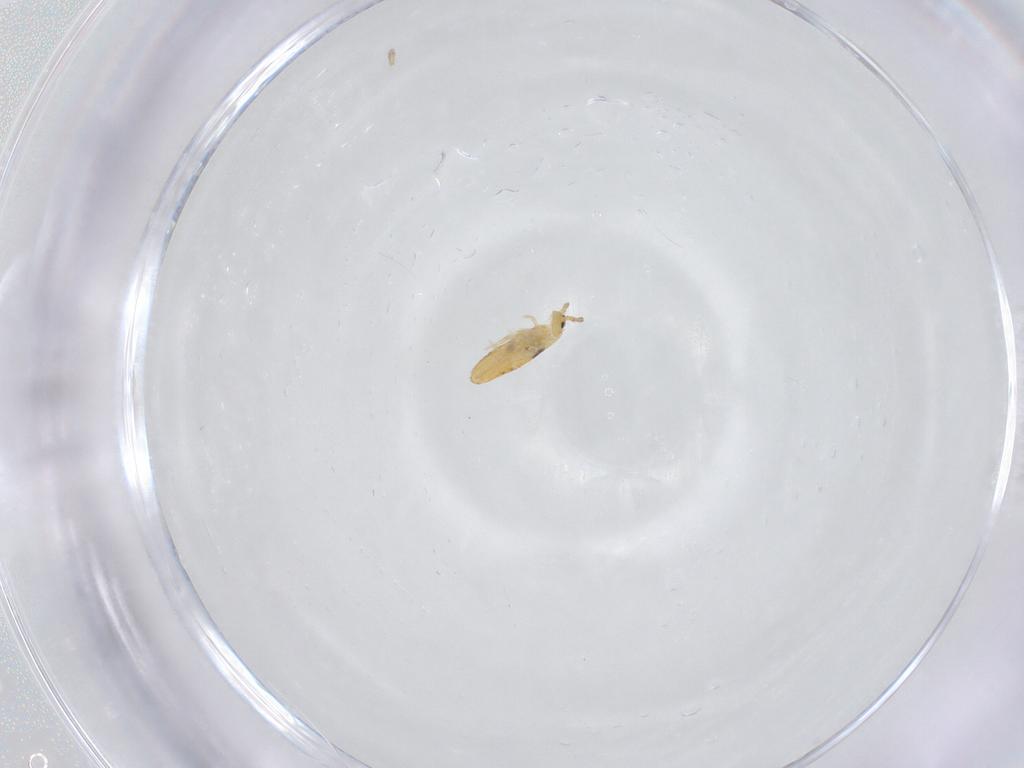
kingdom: Animalia
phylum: Arthropoda
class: Collembola
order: Entomobryomorpha
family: Entomobryidae
